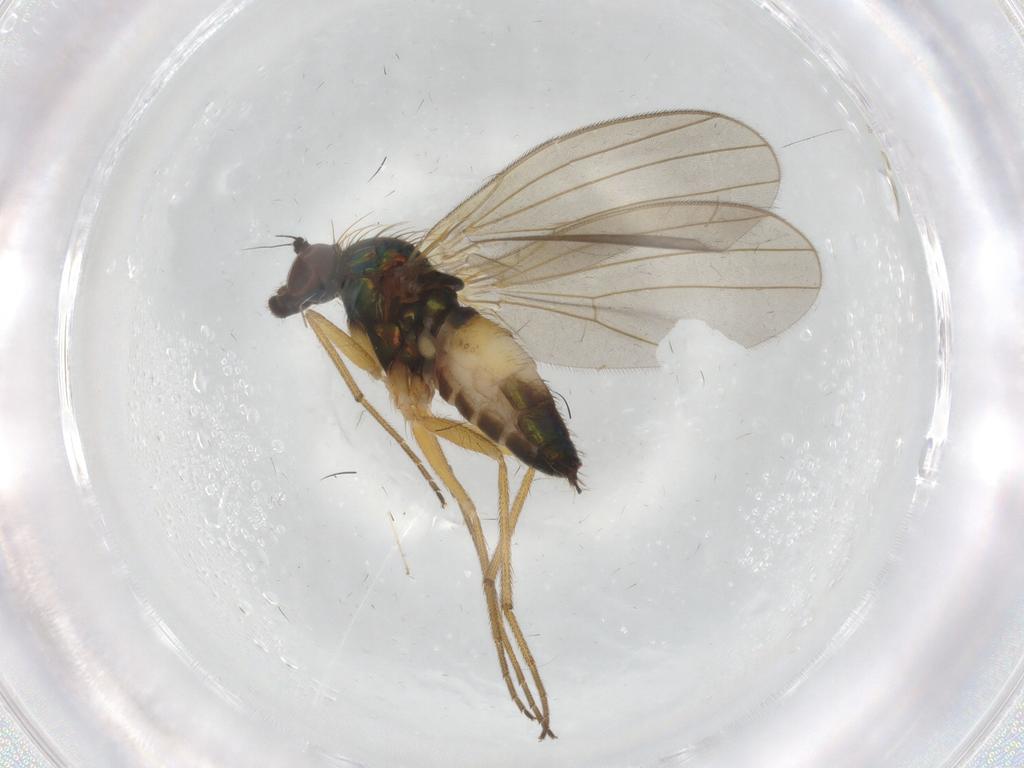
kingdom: Animalia
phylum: Arthropoda
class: Insecta
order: Diptera
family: Dolichopodidae
